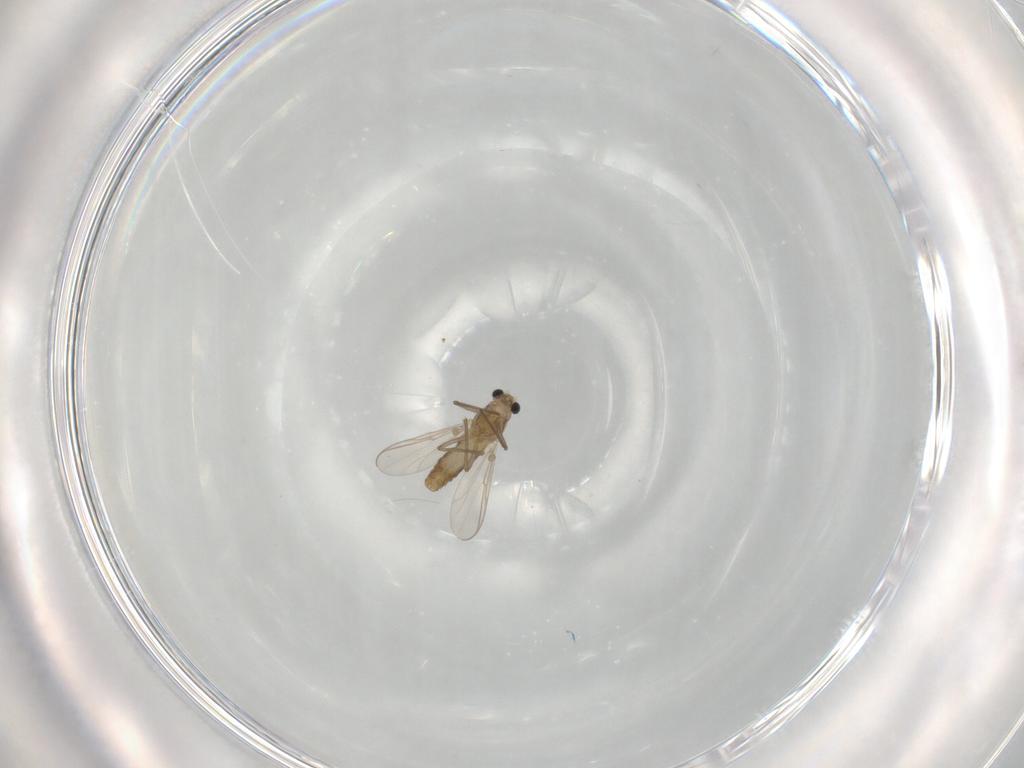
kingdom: Animalia
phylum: Arthropoda
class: Insecta
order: Diptera
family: Chironomidae
